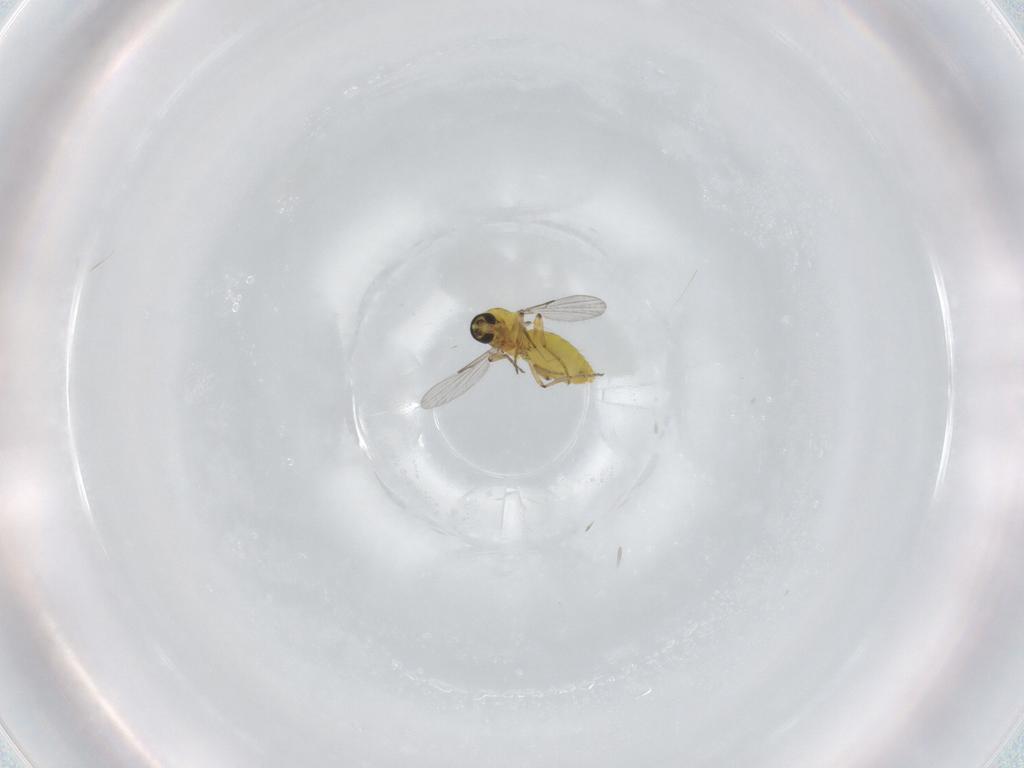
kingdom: Animalia
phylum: Arthropoda
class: Insecta
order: Diptera
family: Ceratopogonidae
